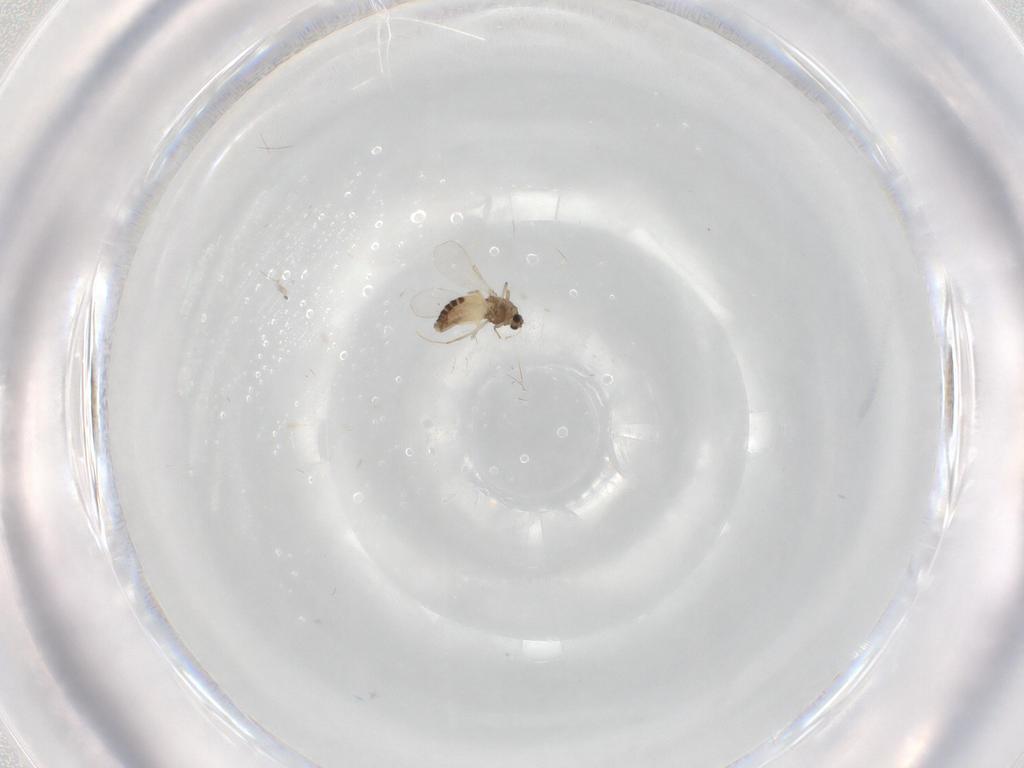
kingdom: Animalia
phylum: Arthropoda
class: Insecta
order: Diptera
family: Chironomidae
